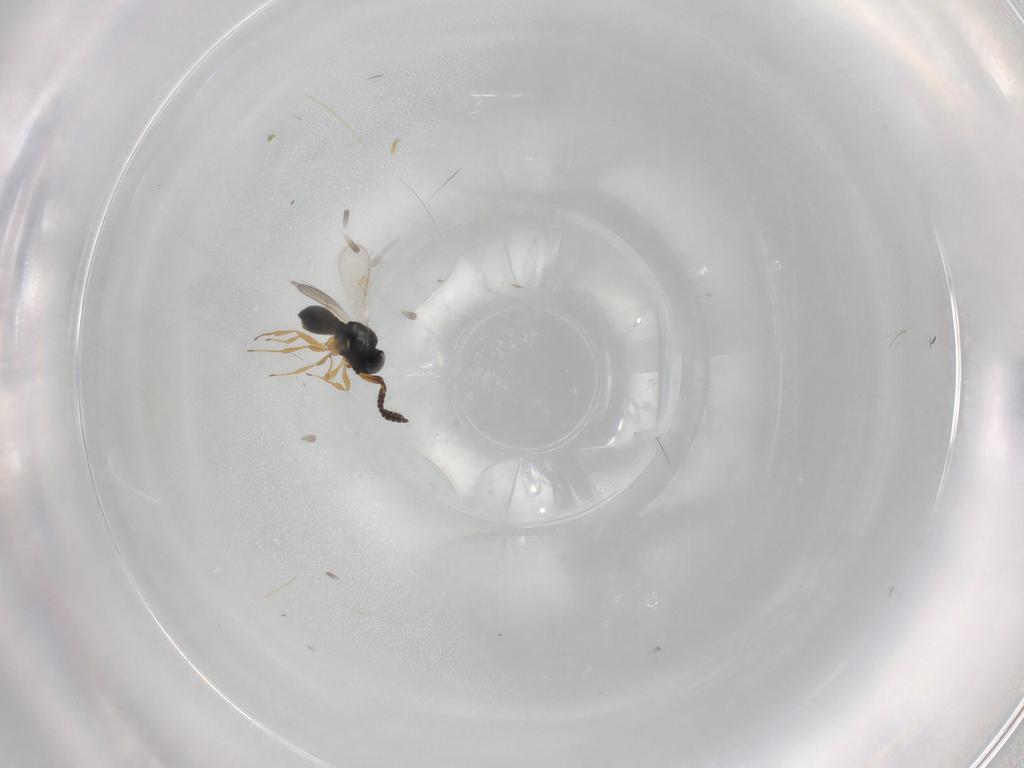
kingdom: Animalia
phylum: Arthropoda
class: Insecta
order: Hymenoptera
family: Scelionidae
